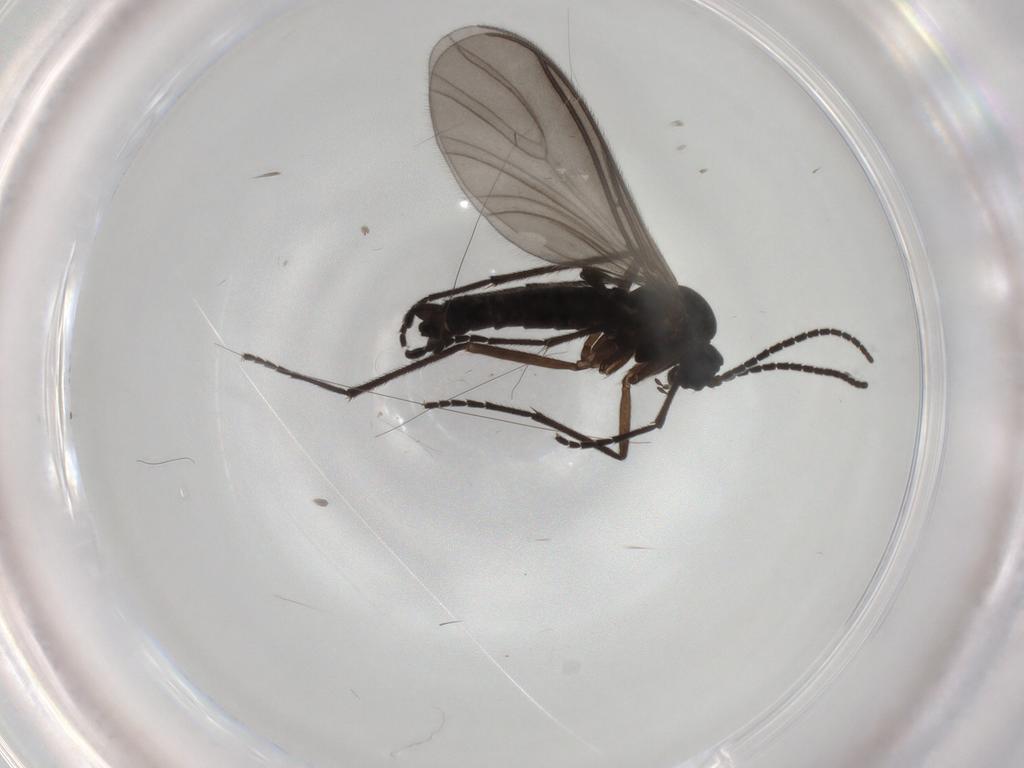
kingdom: Animalia
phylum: Arthropoda
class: Insecta
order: Diptera
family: Sciaridae
